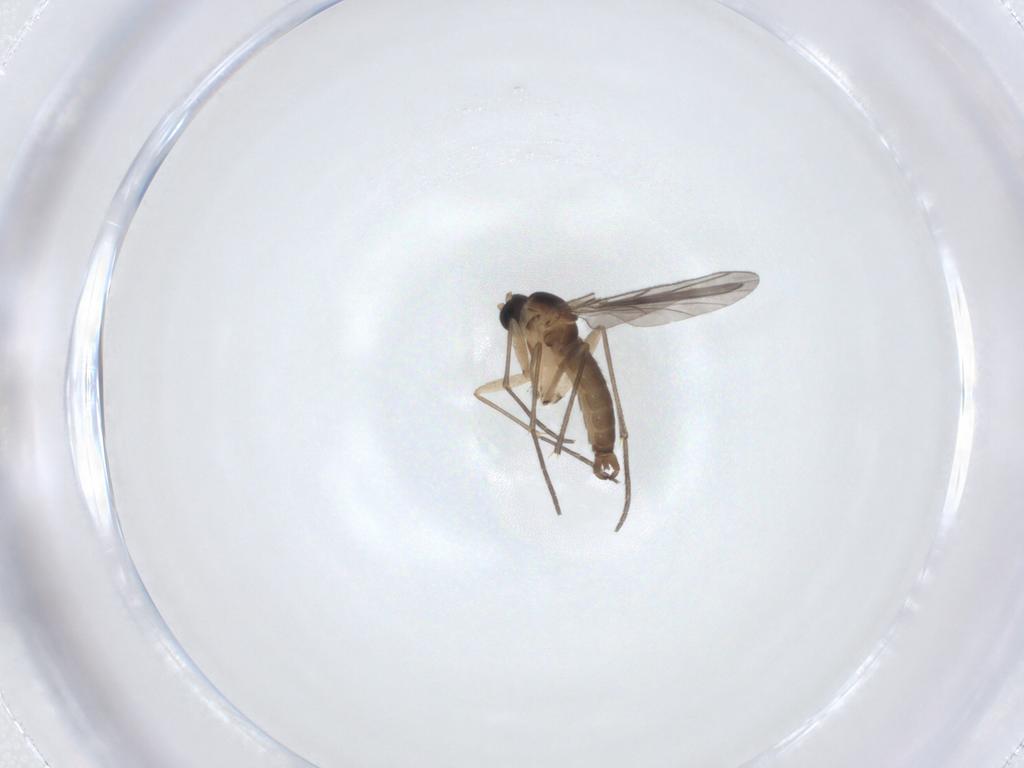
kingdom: Animalia
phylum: Arthropoda
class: Insecta
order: Diptera
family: Sciaridae
